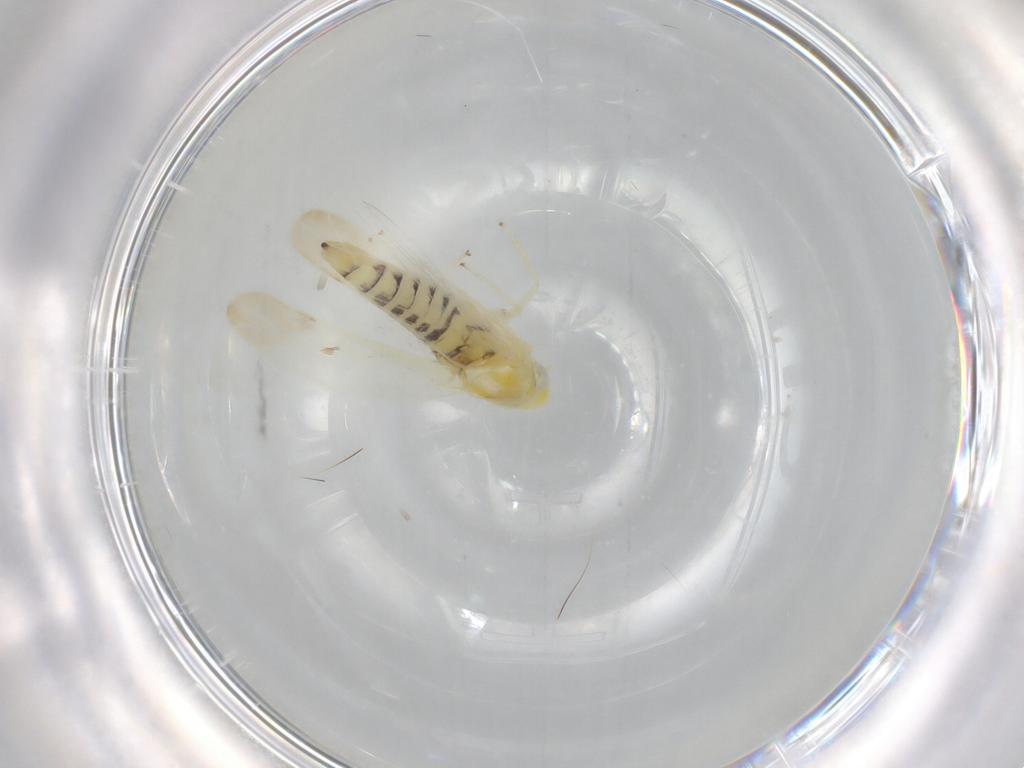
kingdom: Animalia
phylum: Arthropoda
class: Insecta
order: Hemiptera
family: Cicadellidae
